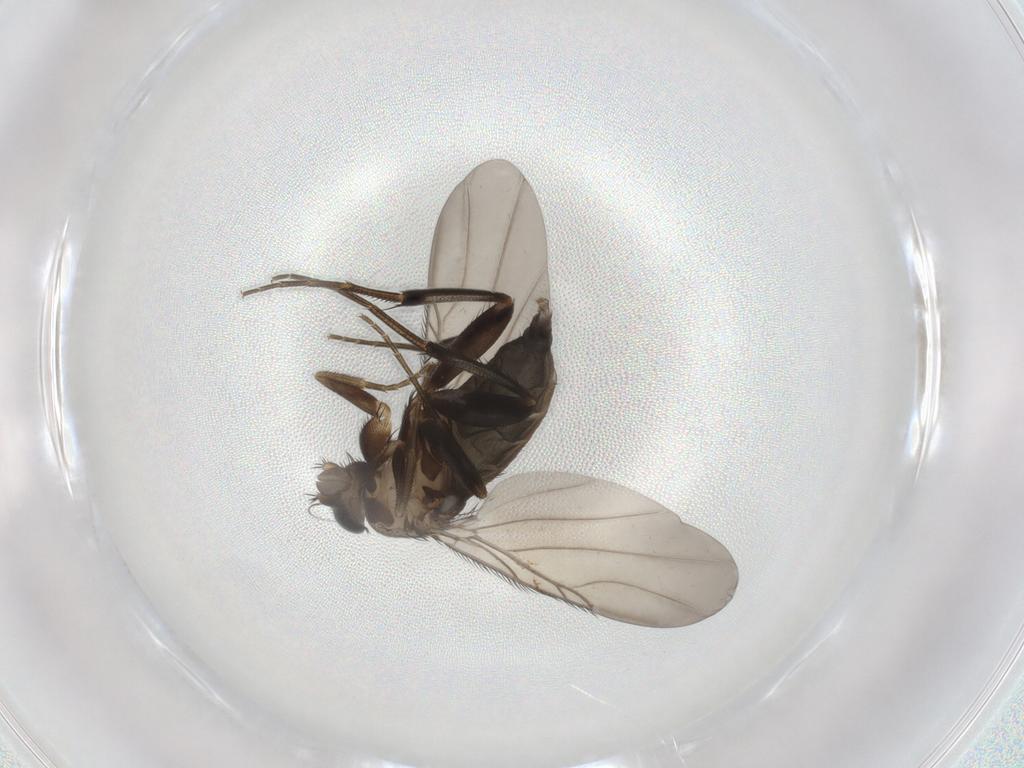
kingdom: Animalia
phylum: Arthropoda
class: Insecta
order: Diptera
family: Phoridae
